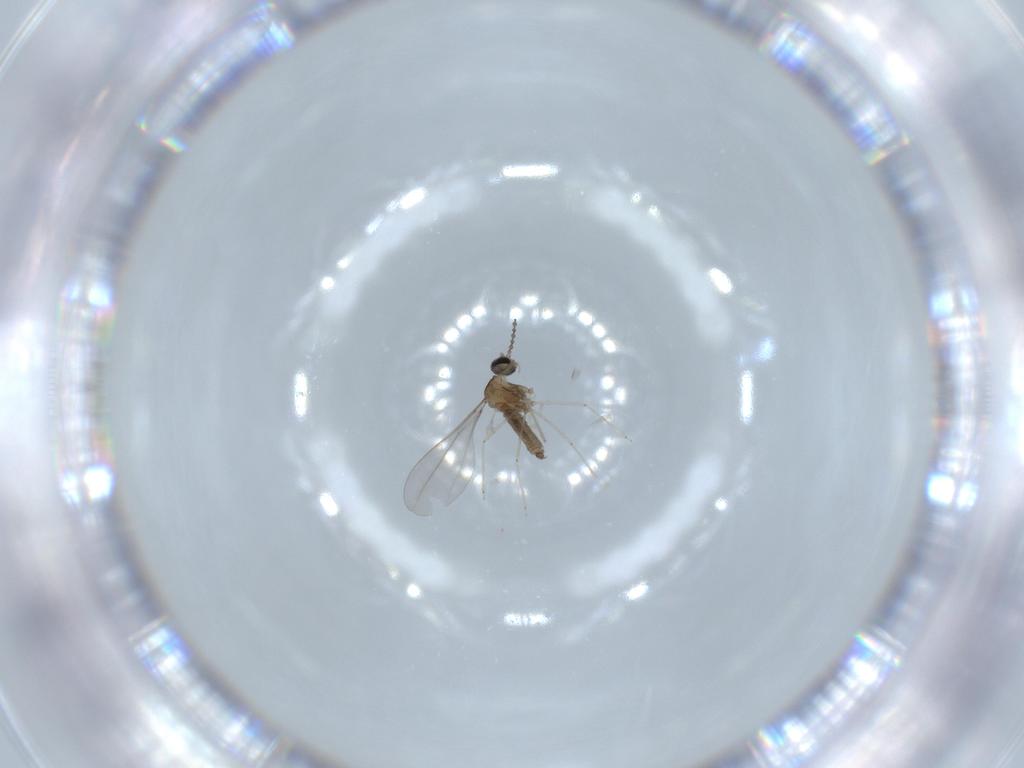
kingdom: Animalia
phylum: Arthropoda
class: Insecta
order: Diptera
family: Cecidomyiidae
